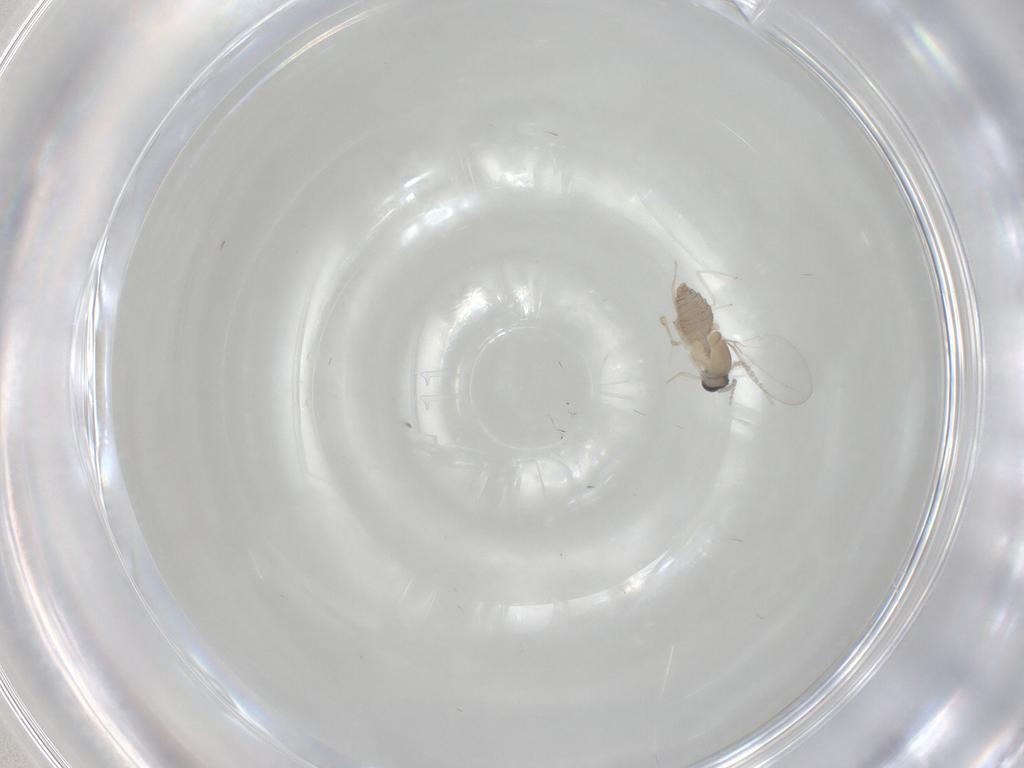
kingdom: Animalia
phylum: Arthropoda
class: Insecta
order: Diptera
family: Cecidomyiidae
